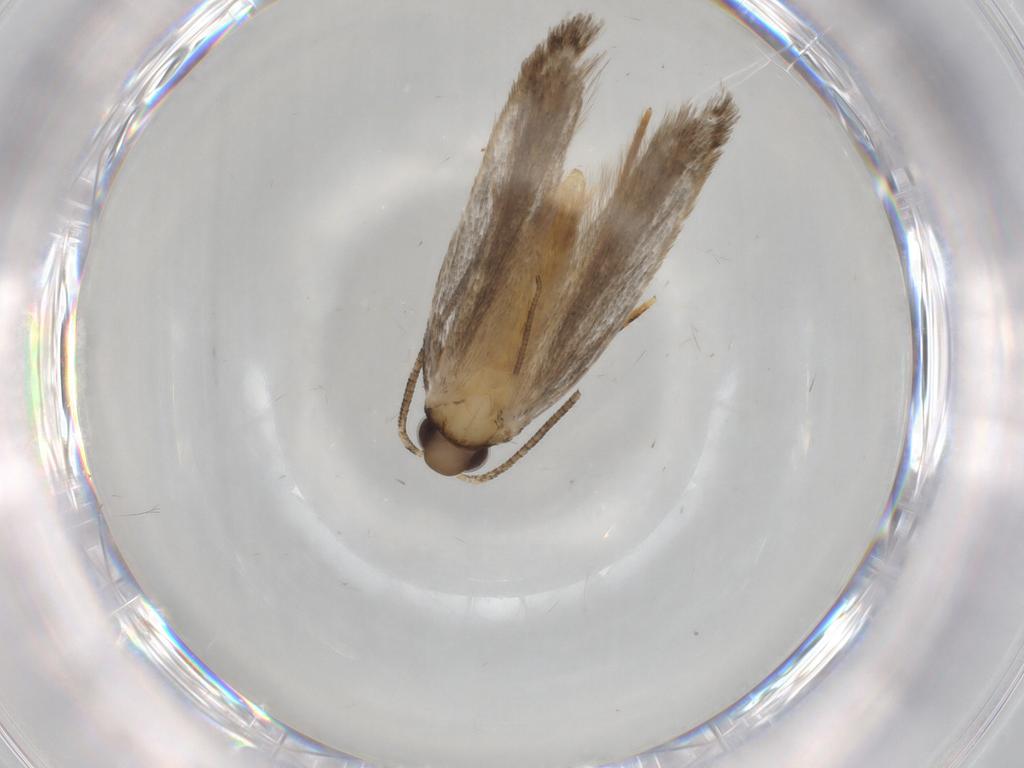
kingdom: Animalia
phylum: Arthropoda
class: Insecta
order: Lepidoptera
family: Autostichidae
